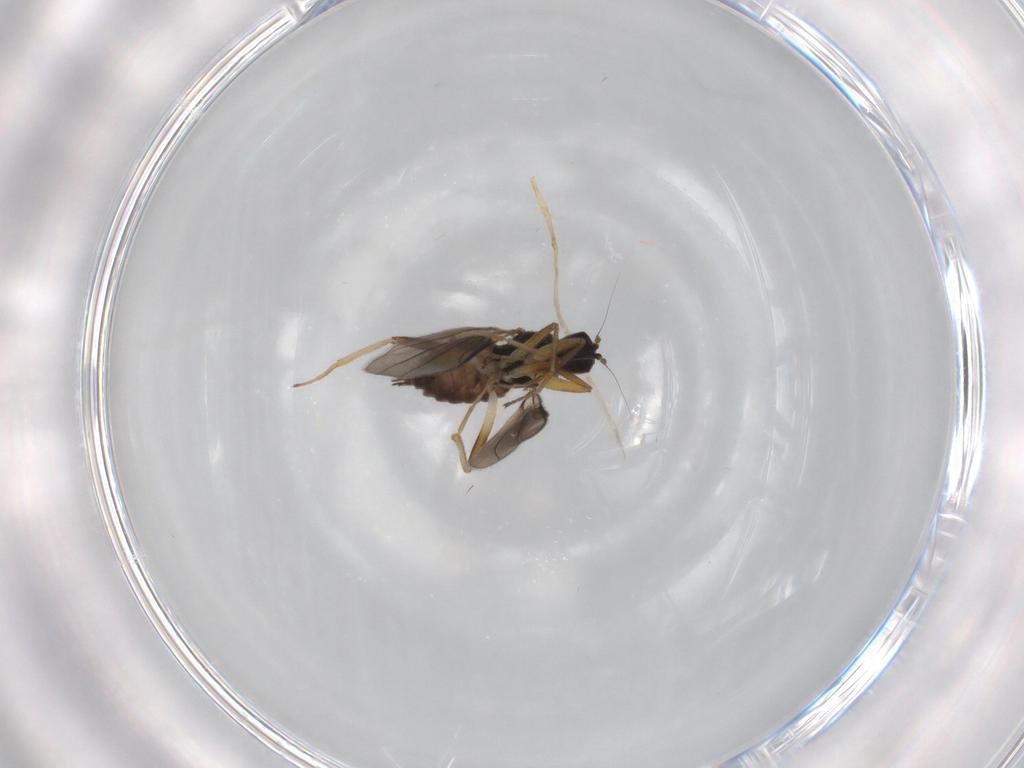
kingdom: Animalia
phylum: Arthropoda
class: Insecta
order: Diptera
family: Hybotidae
